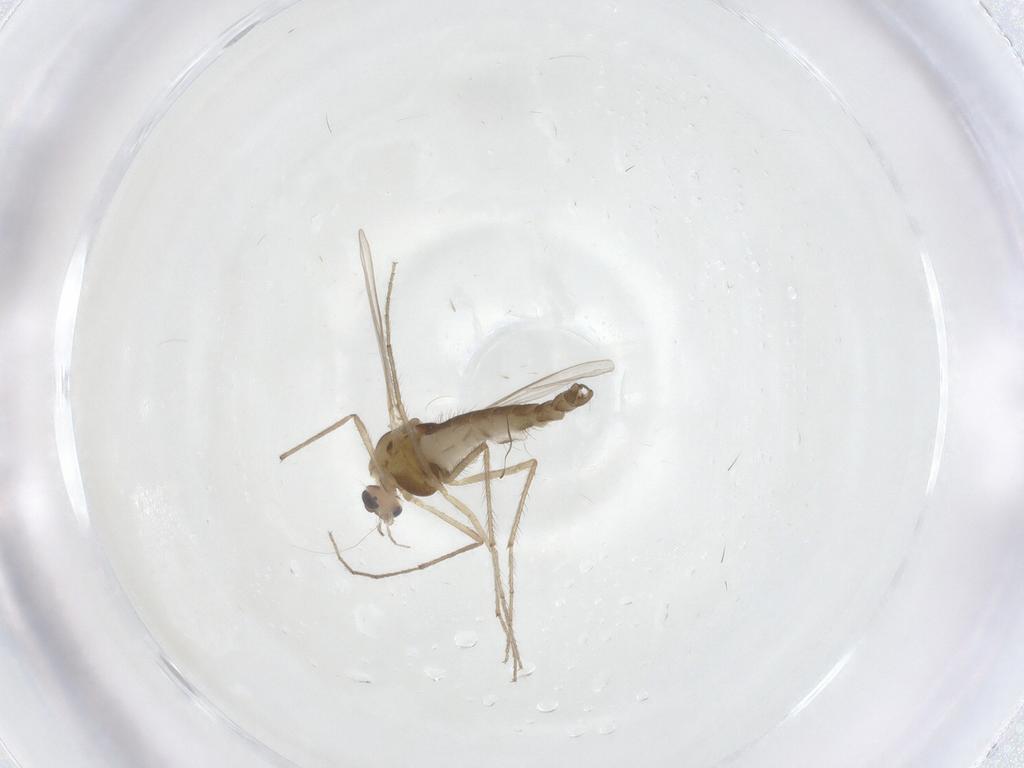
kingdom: Animalia
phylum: Arthropoda
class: Insecta
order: Diptera
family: Chironomidae
